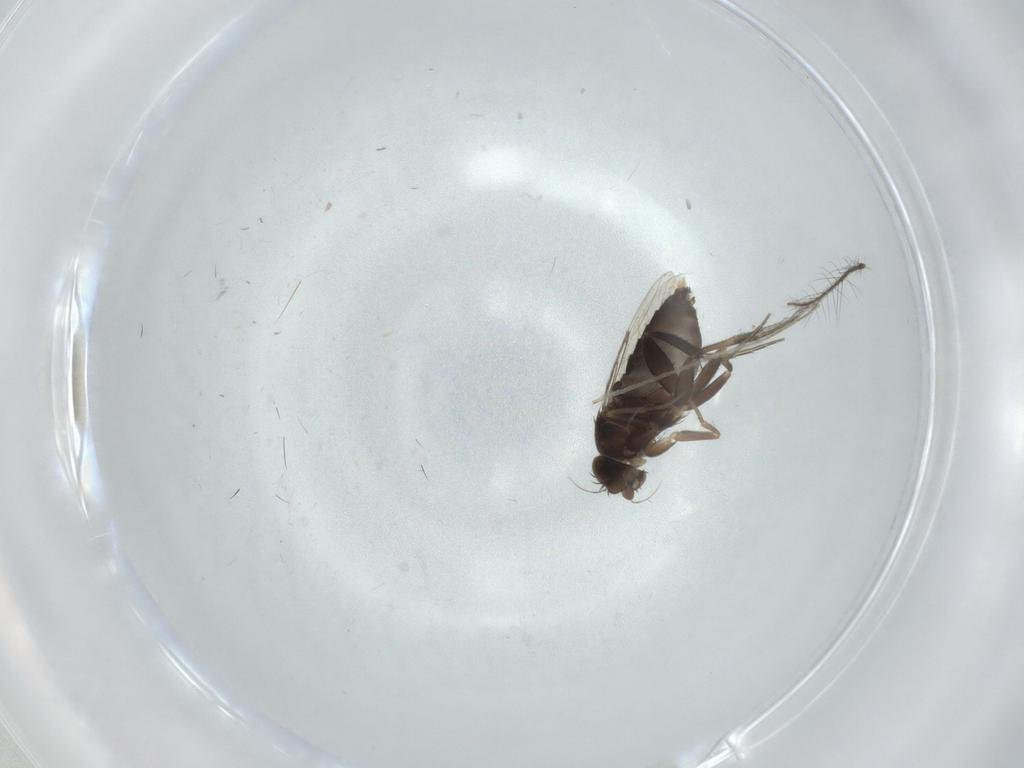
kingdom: Animalia
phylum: Arthropoda
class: Insecta
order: Diptera
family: Phoridae
